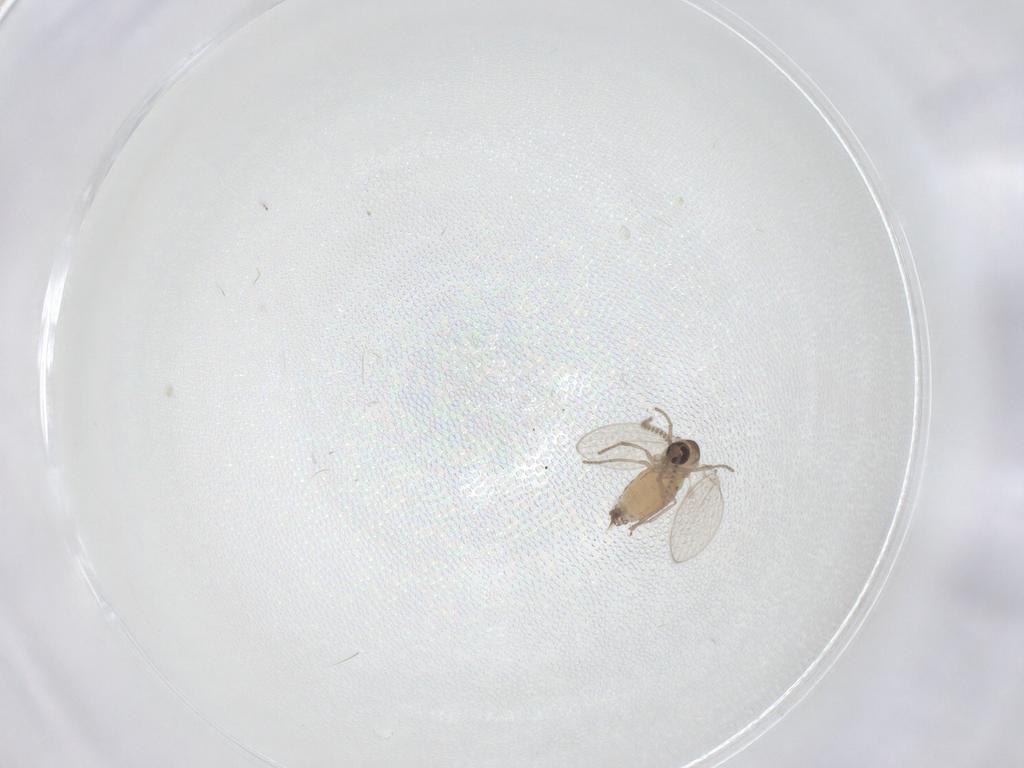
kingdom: Animalia
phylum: Arthropoda
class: Insecta
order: Diptera
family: Psychodidae
